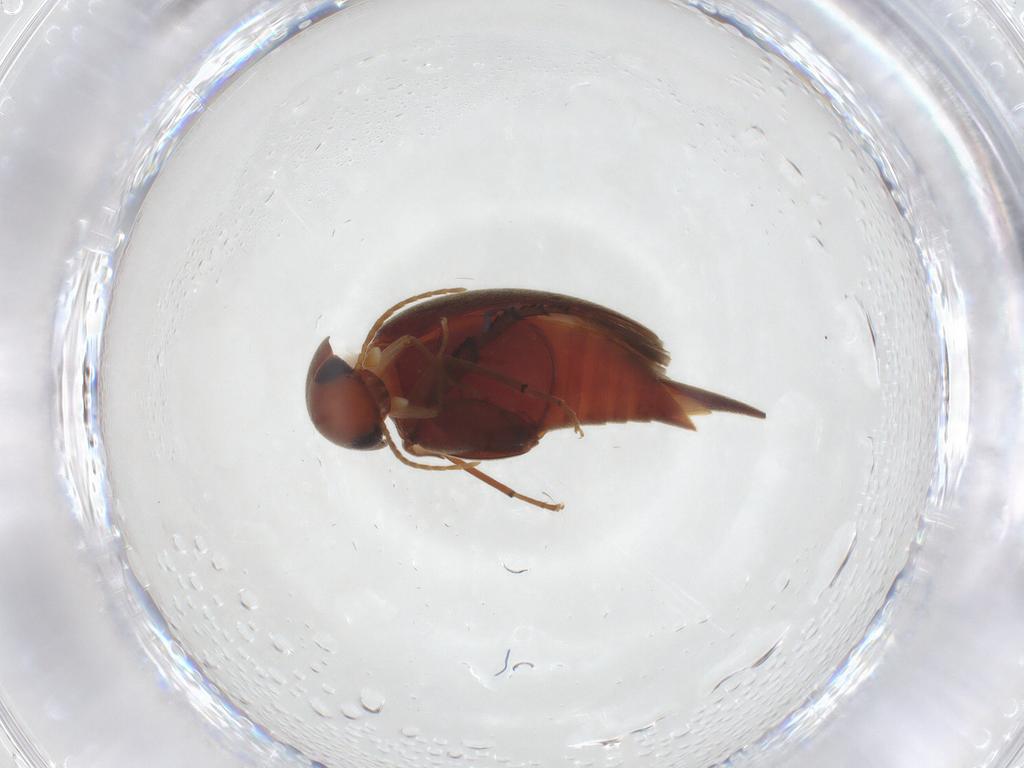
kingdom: Animalia
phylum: Arthropoda
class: Insecta
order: Coleoptera
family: Mordellidae
